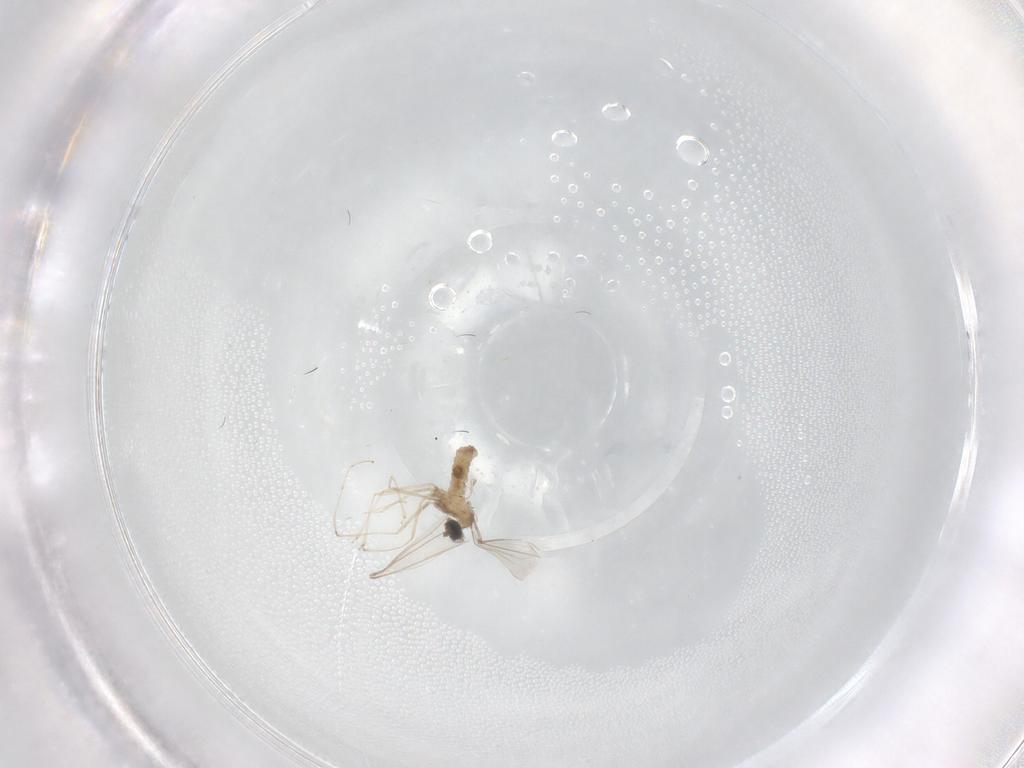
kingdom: Animalia
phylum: Arthropoda
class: Insecta
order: Diptera
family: Cecidomyiidae
